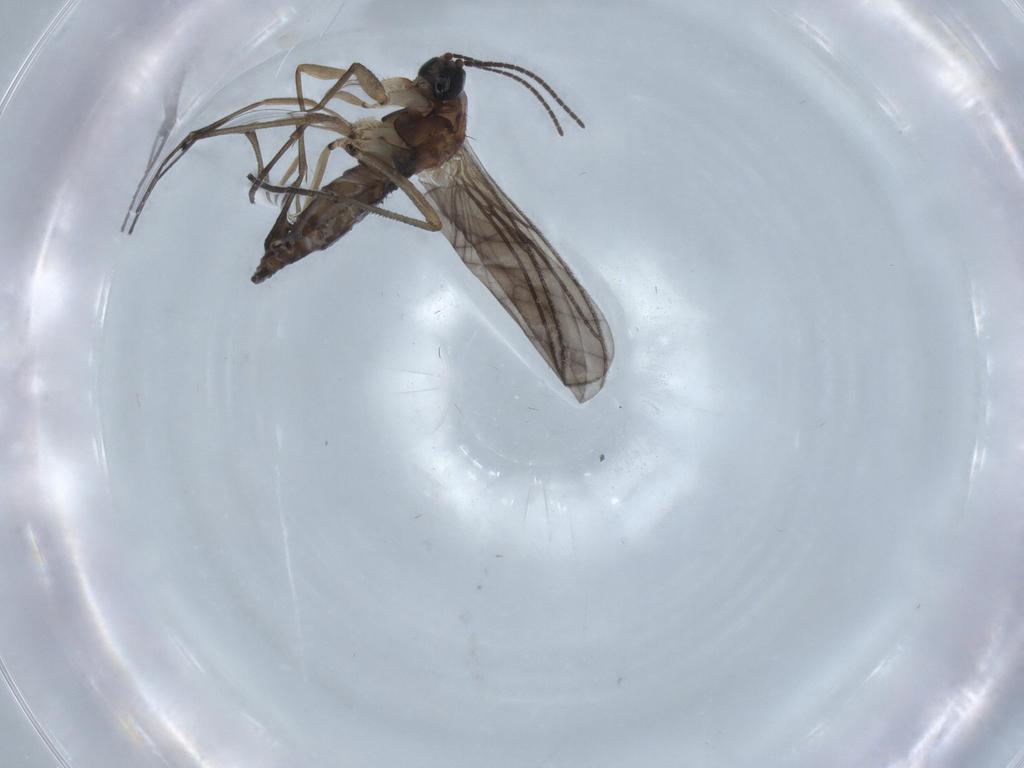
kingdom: Animalia
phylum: Arthropoda
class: Insecta
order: Diptera
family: Sciaridae
